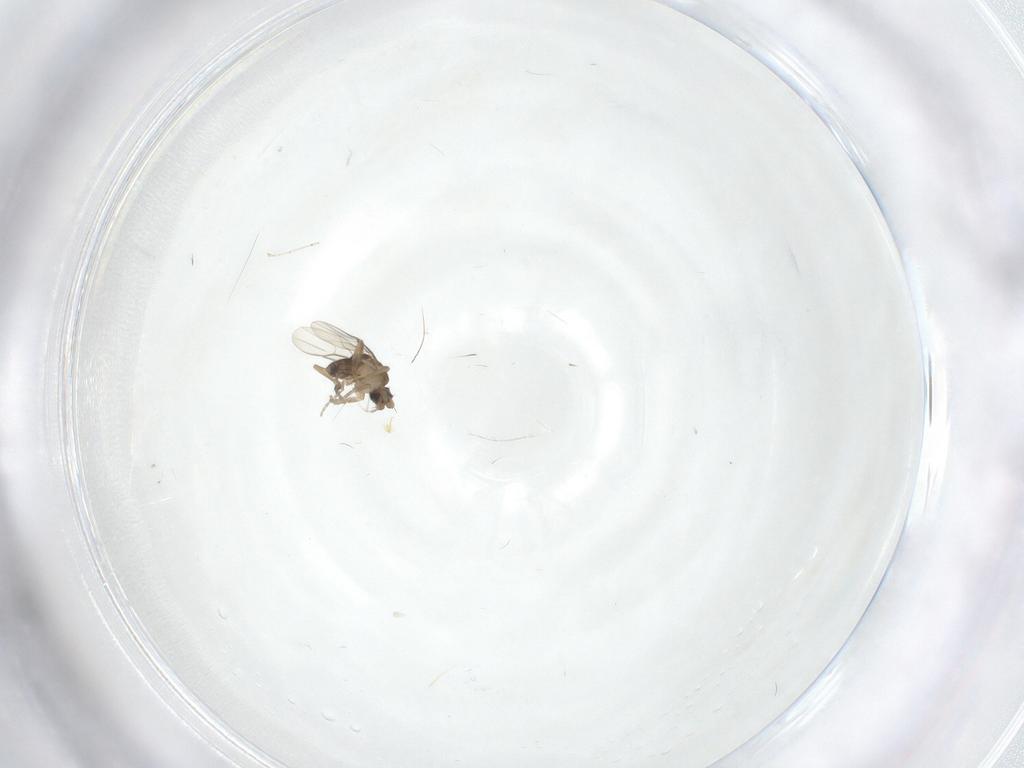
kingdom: Animalia
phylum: Arthropoda
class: Insecta
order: Diptera
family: Cecidomyiidae
